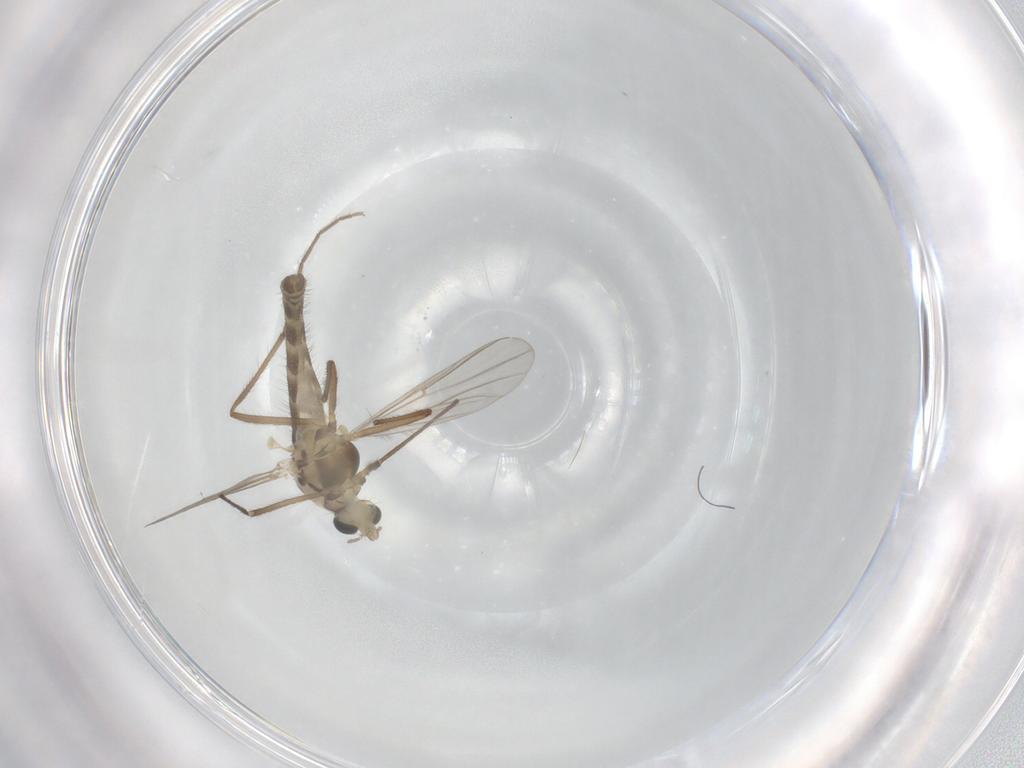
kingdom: Animalia
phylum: Arthropoda
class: Insecta
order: Diptera
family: Chironomidae
